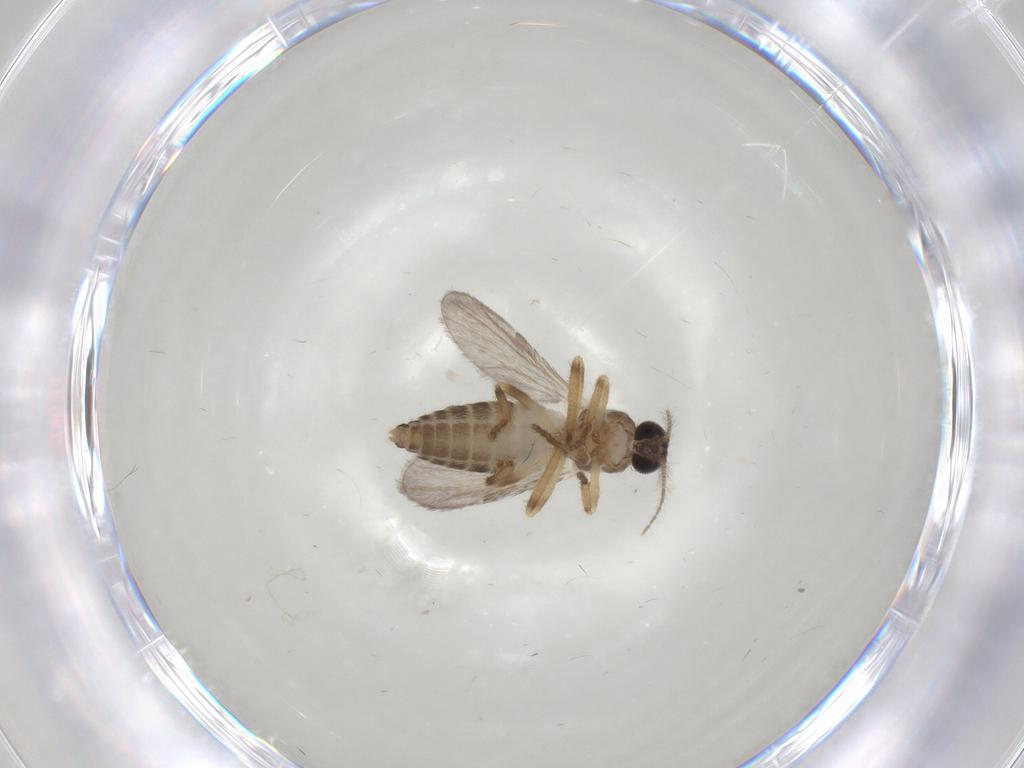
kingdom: Animalia
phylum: Arthropoda
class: Insecta
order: Diptera
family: Ceratopogonidae
